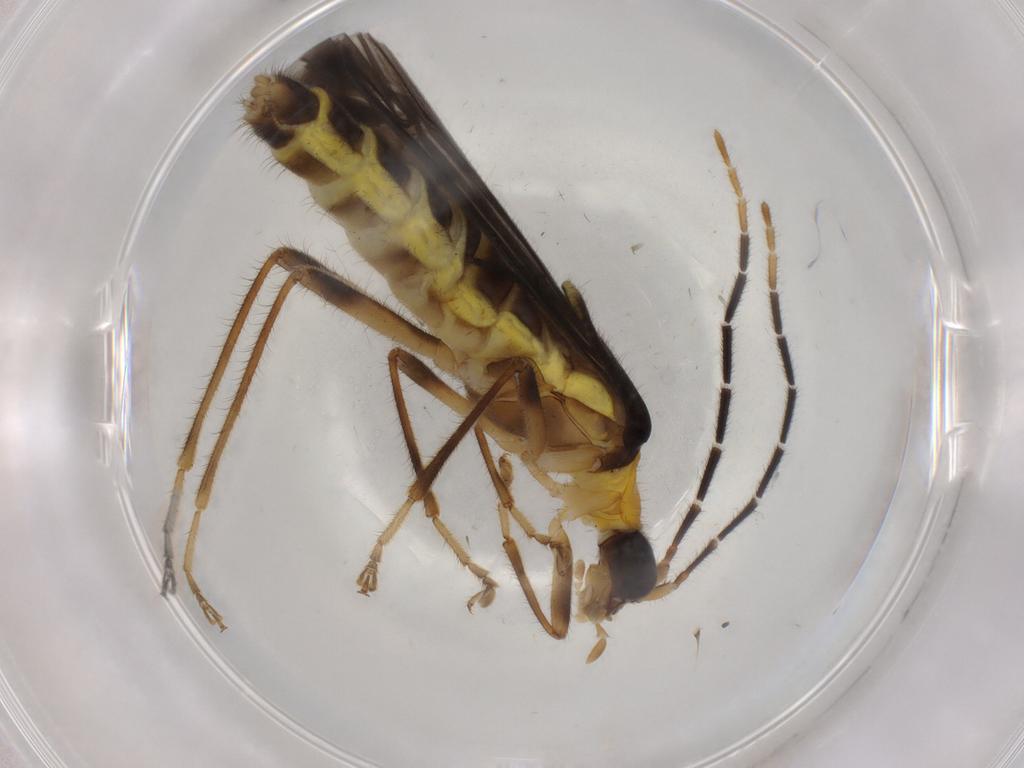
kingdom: Animalia
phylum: Arthropoda
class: Insecta
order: Coleoptera
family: Cantharidae
